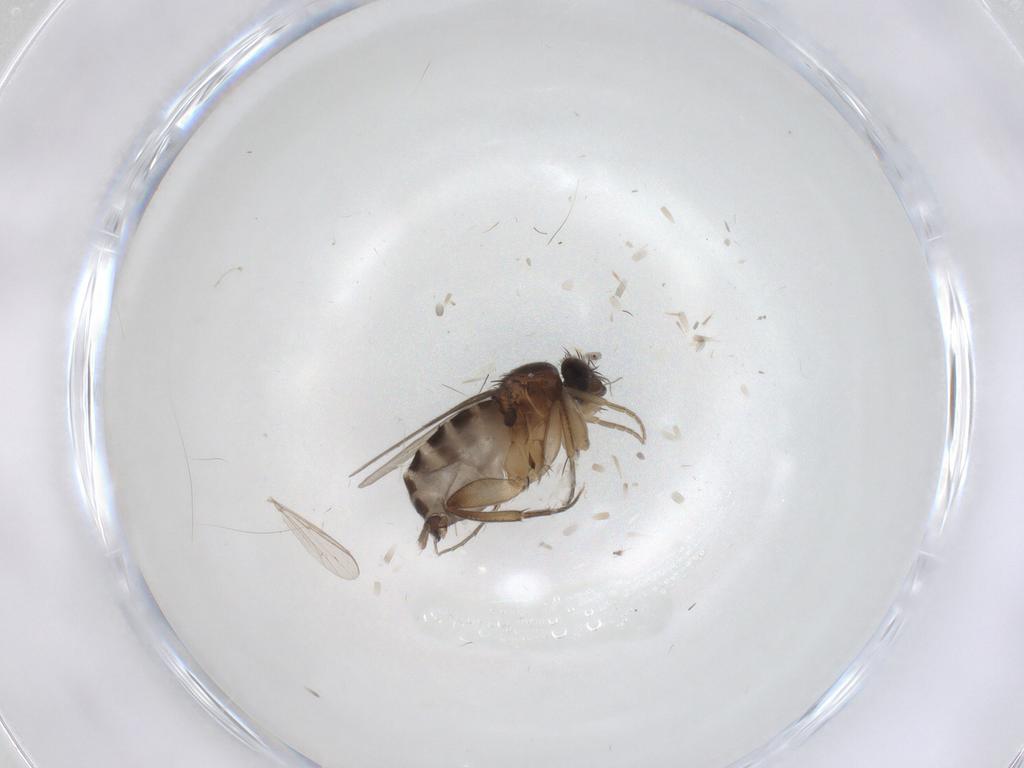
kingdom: Animalia
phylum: Arthropoda
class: Insecta
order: Diptera
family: Phoridae
